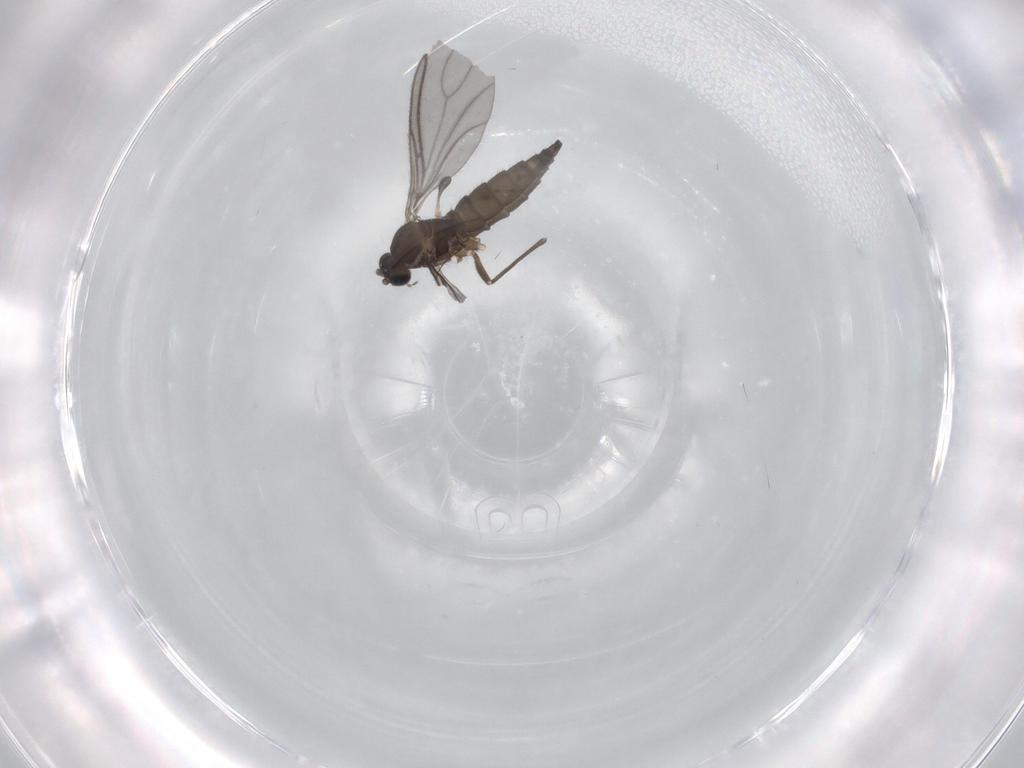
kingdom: Animalia
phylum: Arthropoda
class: Insecta
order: Diptera
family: Sciaridae
